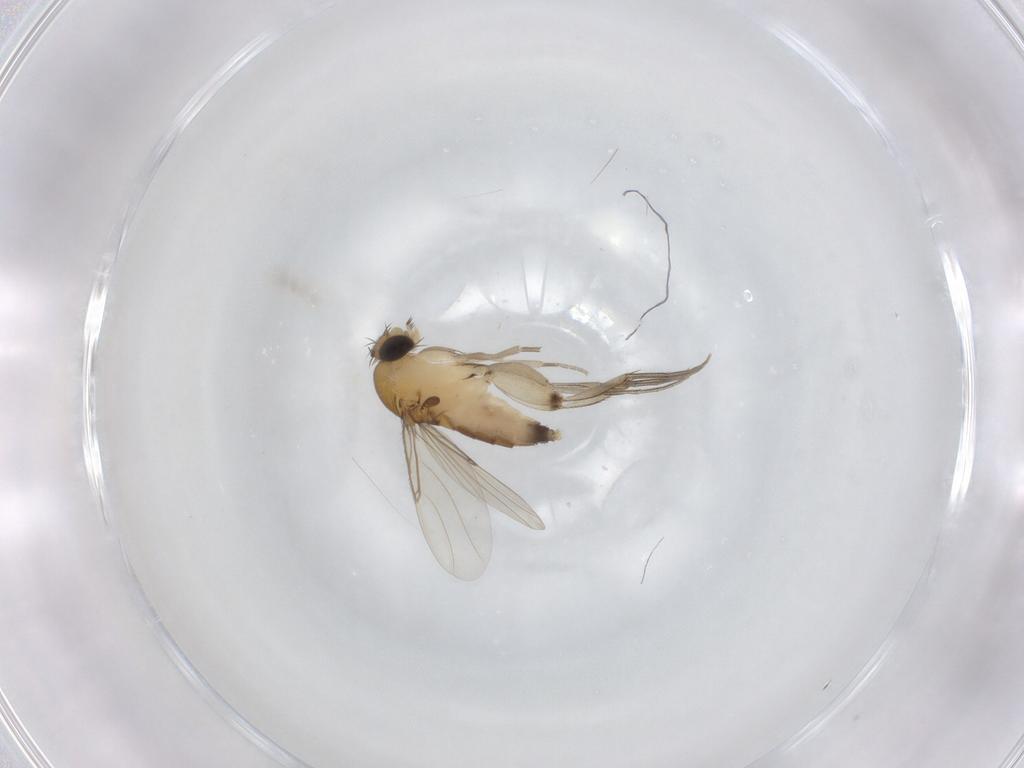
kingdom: Animalia
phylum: Arthropoda
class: Insecta
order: Diptera
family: Phoridae
